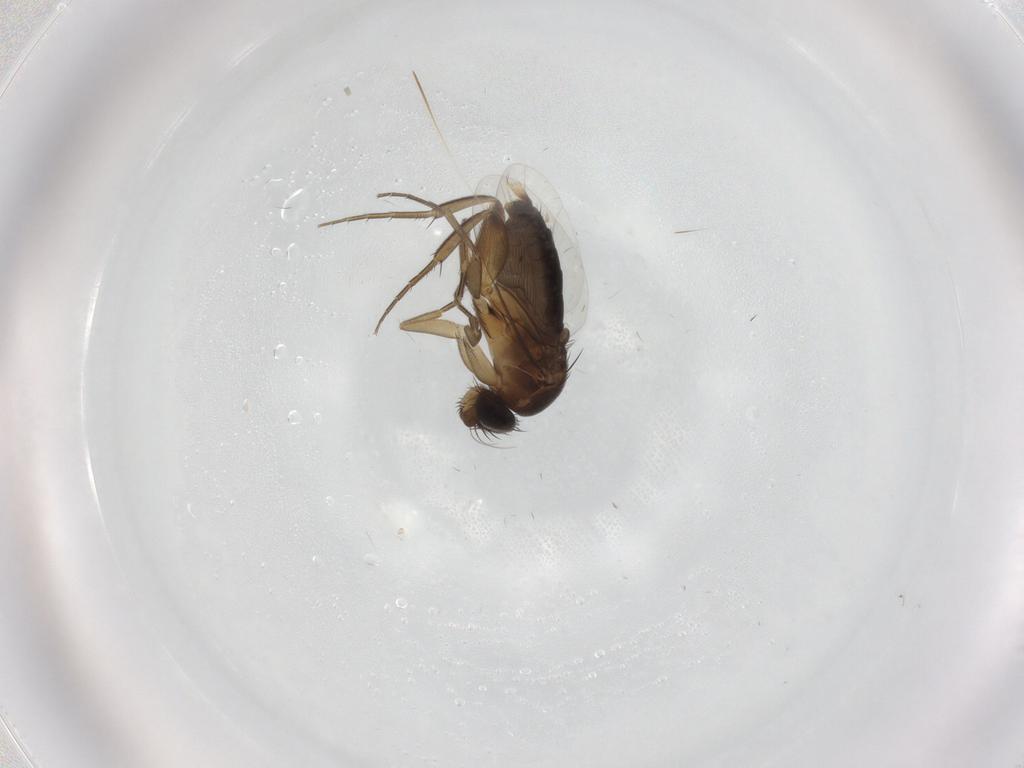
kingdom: Animalia
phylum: Arthropoda
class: Insecta
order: Diptera
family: Phoridae
